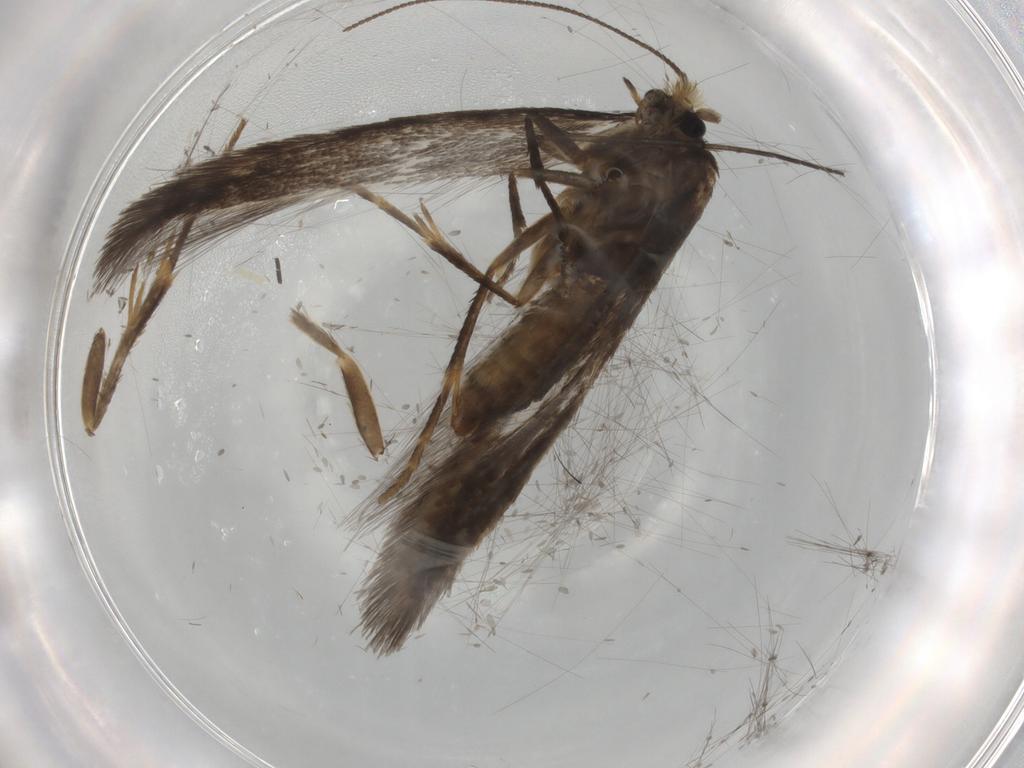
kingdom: Animalia
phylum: Arthropoda
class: Insecta
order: Lepidoptera
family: Nepticulidae
